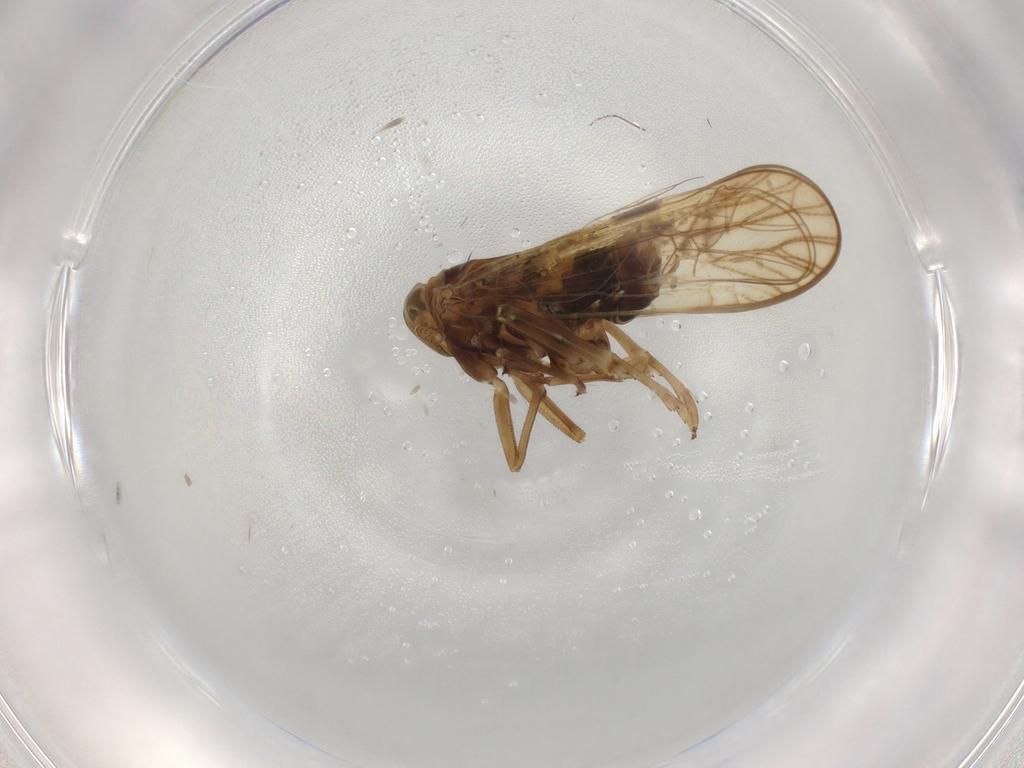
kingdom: Animalia
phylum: Arthropoda
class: Insecta
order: Hemiptera
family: Delphacidae
